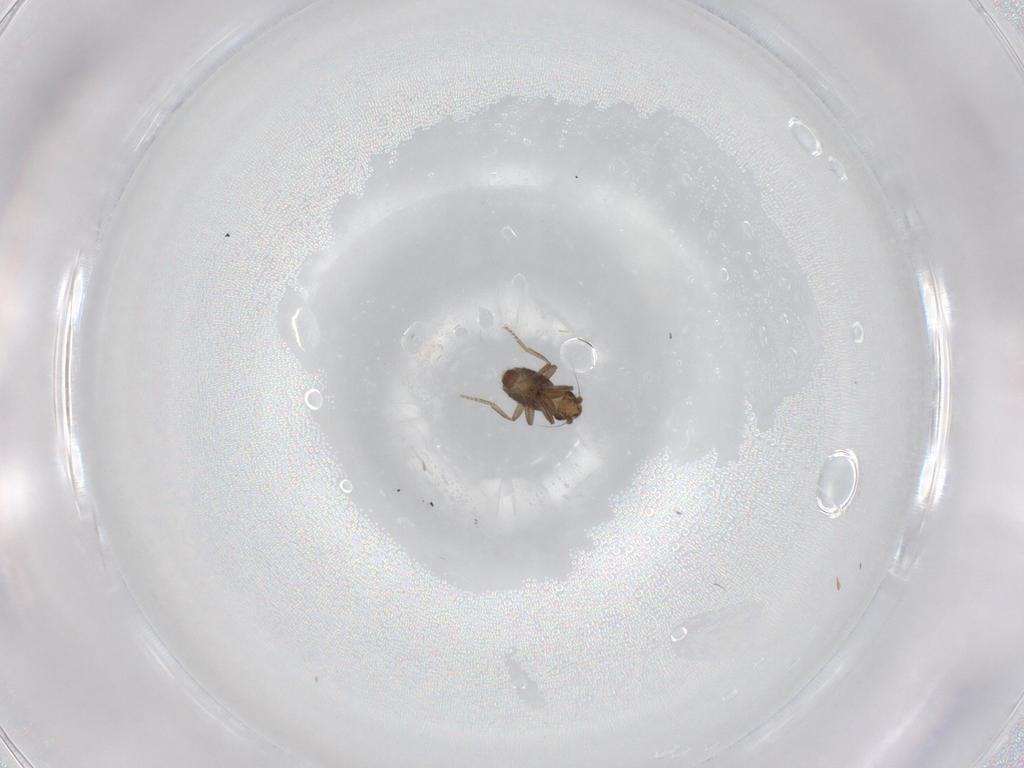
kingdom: Animalia
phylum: Arthropoda
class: Insecta
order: Diptera
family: Phoridae
